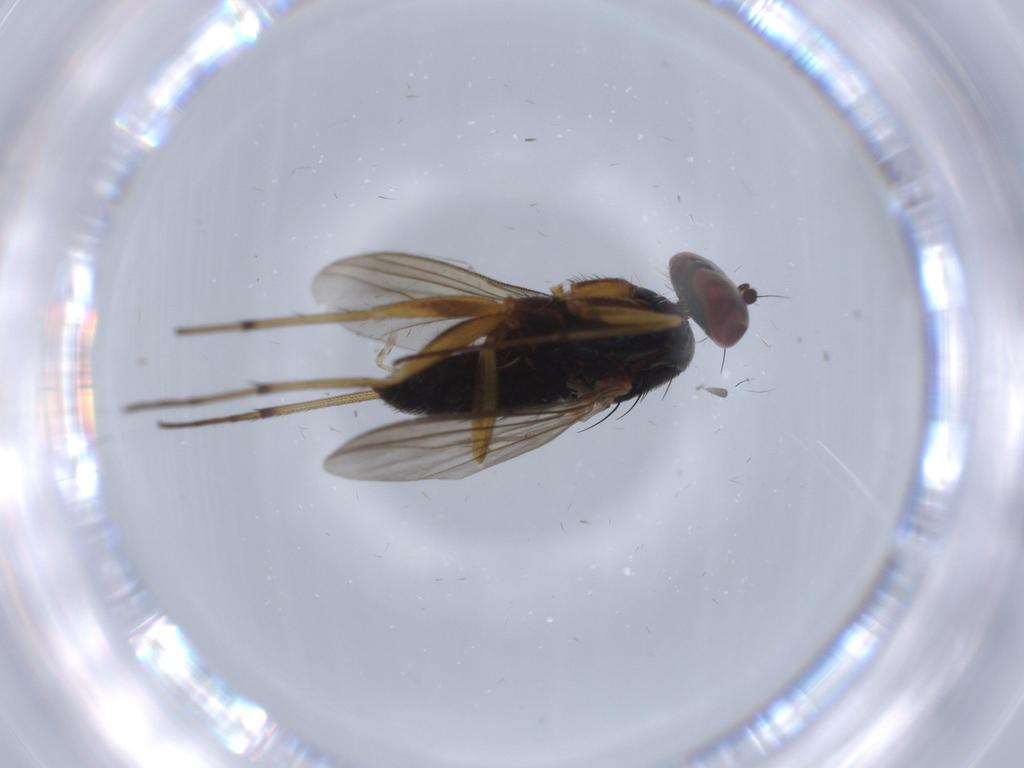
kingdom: Animalia
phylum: Arthropoda
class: Insecta
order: Diptera
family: Dolichopodidae
